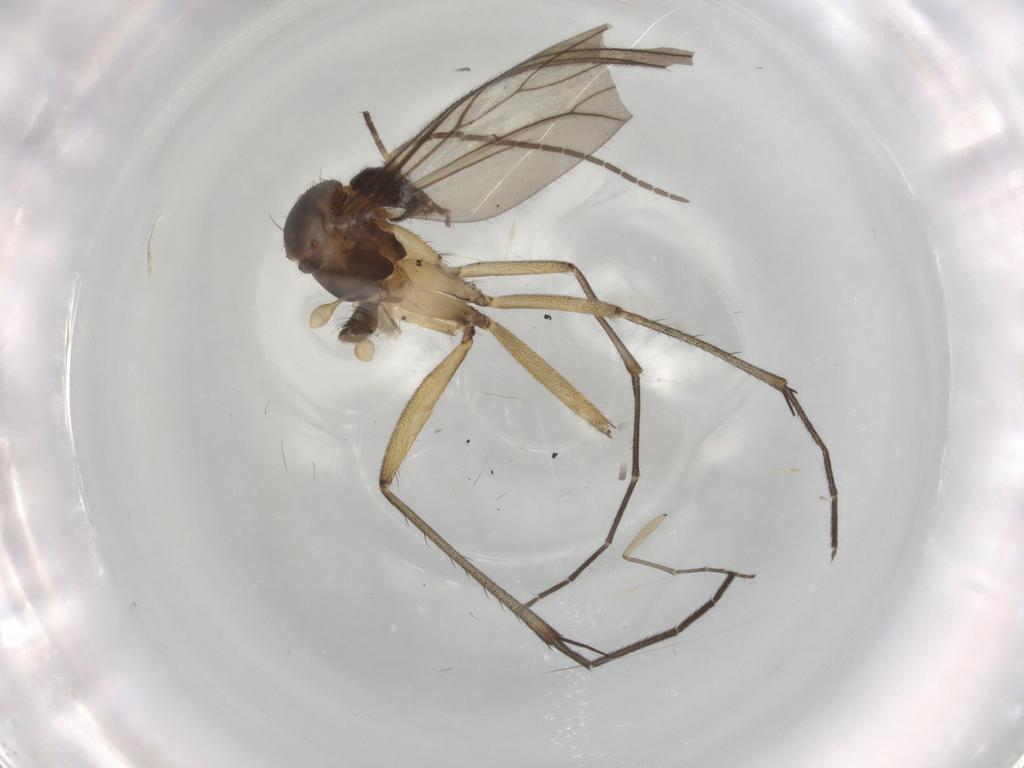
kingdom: Animalia
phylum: Arthropoda
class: Insecta
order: Diptera
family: Sciaridae
